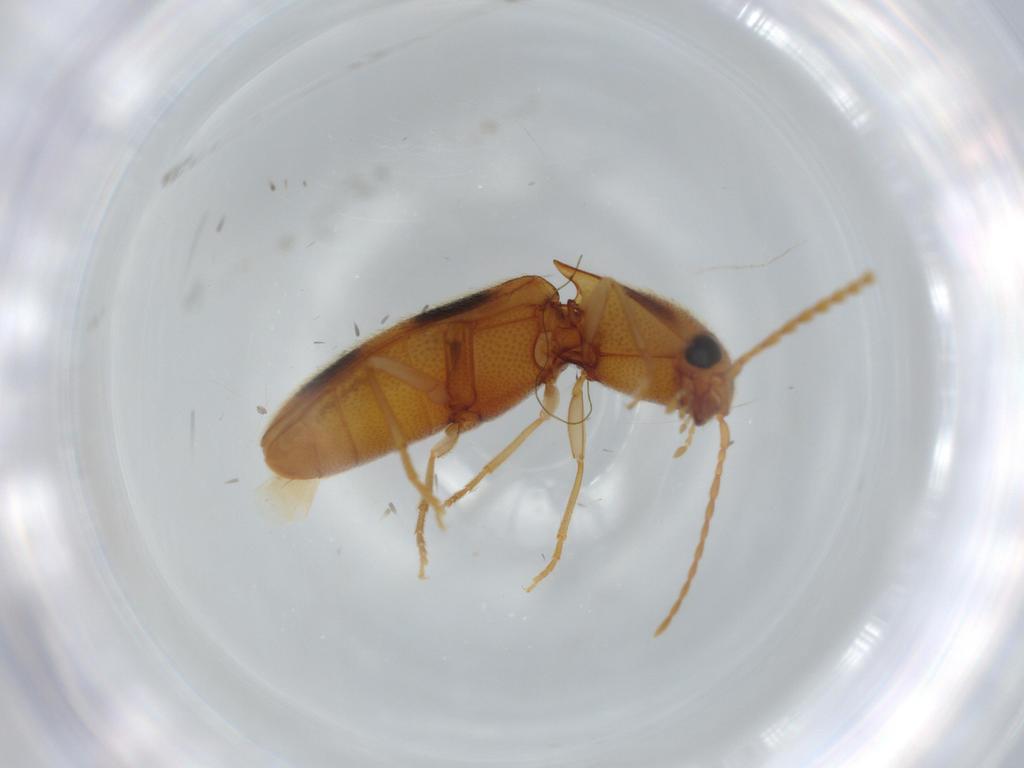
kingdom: Animalia
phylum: Arthropoda
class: Insecta
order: Coleoptera
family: Elateridae
